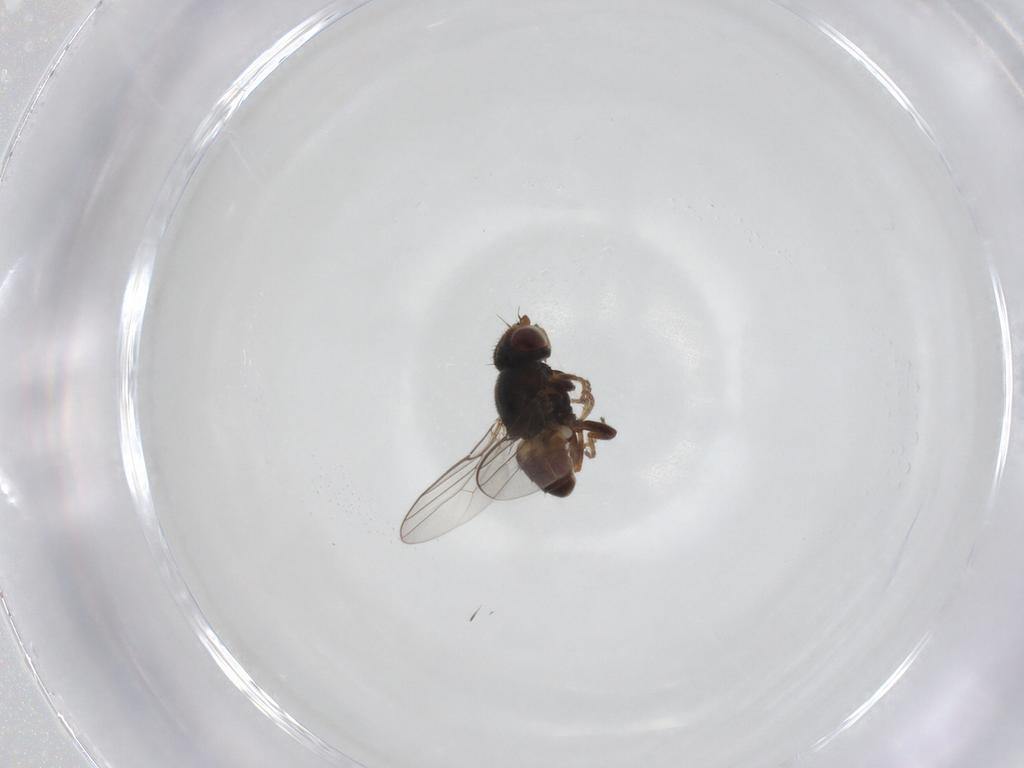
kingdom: Animalia
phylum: Arthropoda
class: Insecta
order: Diptera
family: Chloropidae
